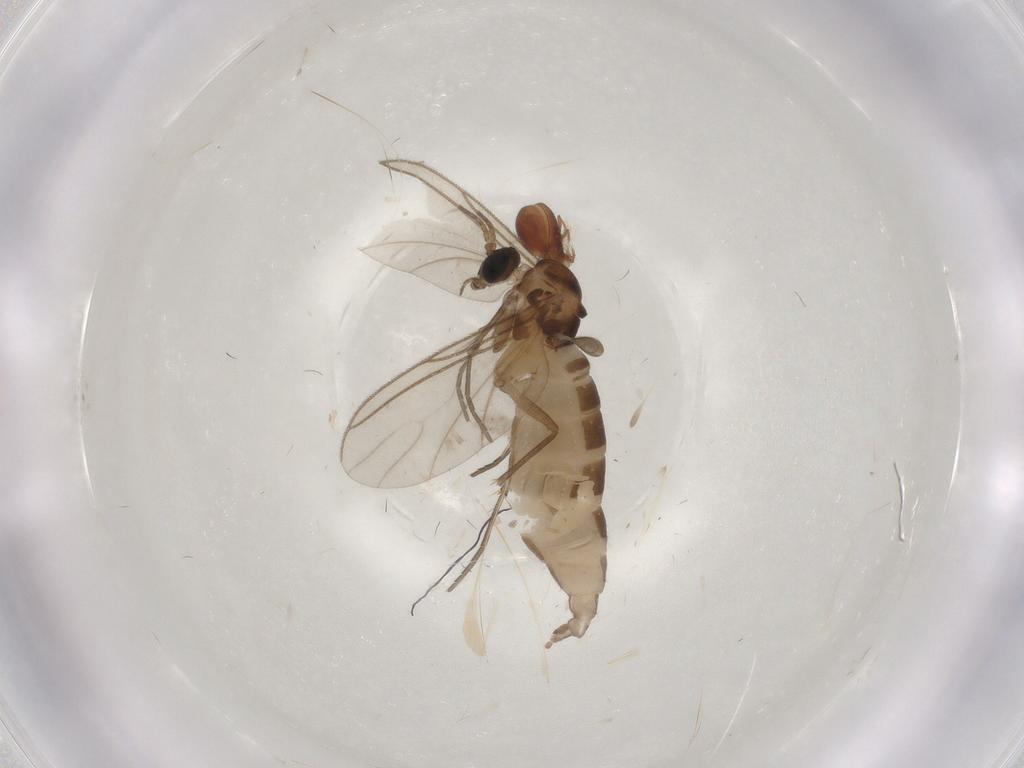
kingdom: Animalia
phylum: Arthropoda
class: Insecta
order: Diptera
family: Sciaridae
